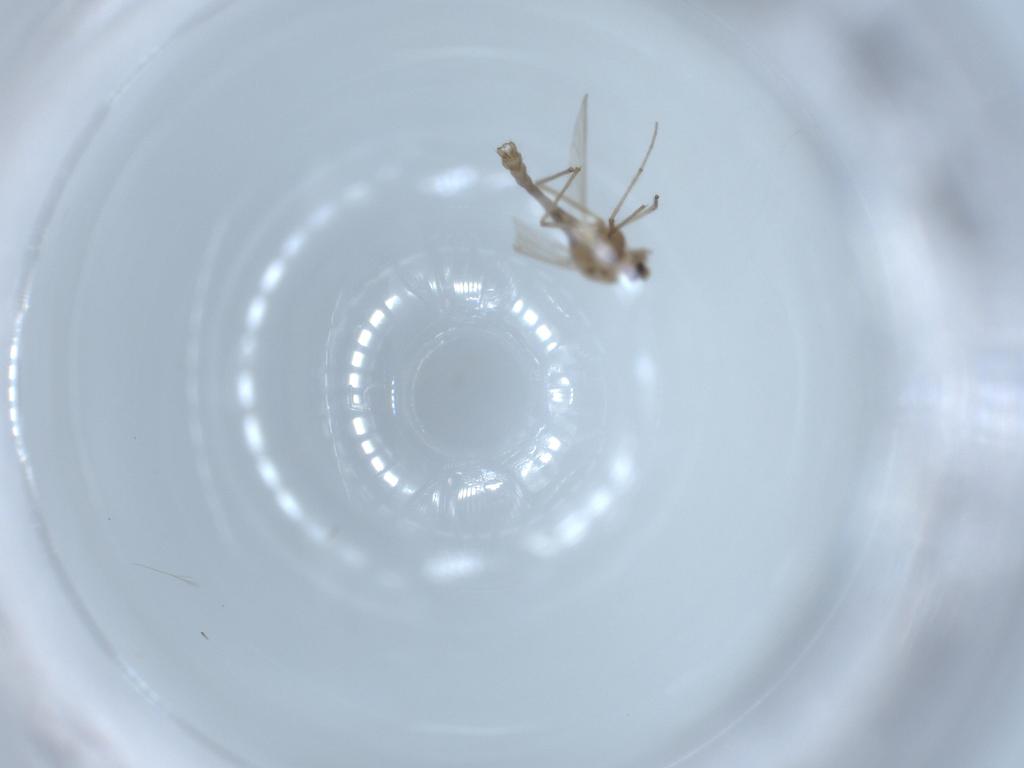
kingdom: Animalia
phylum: Arthropoda
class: Insecta
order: Diptera
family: Chironomidae
